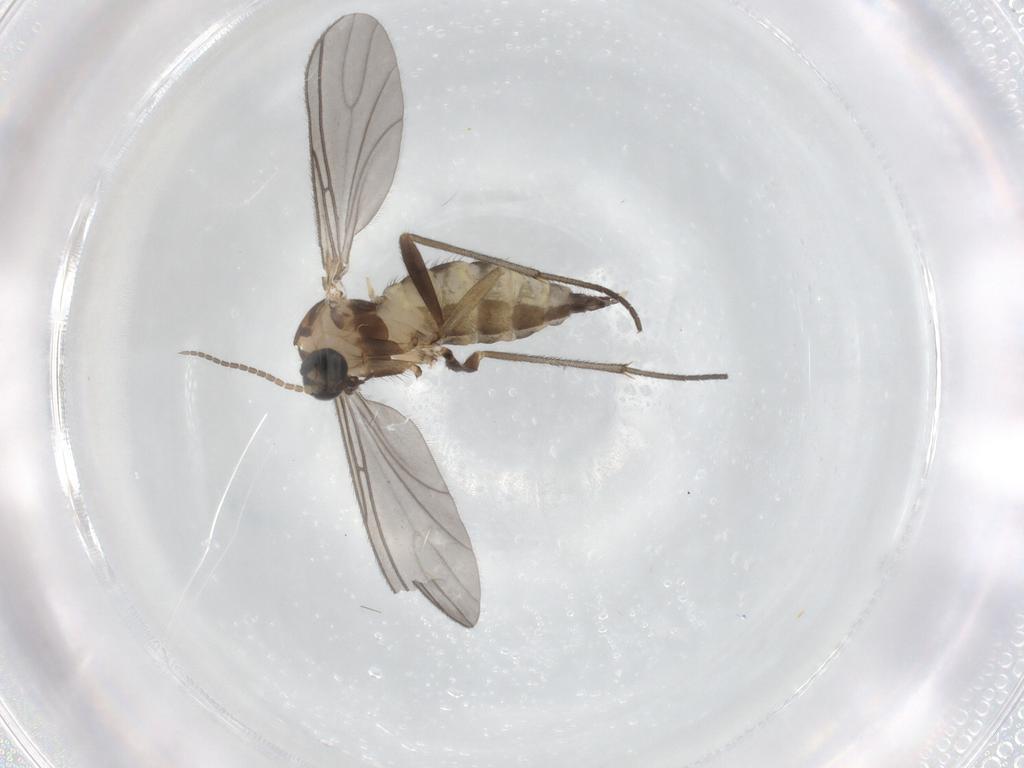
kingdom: Animalia
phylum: Arthropoda
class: Insecta
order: Diptera
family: Sciaridae
